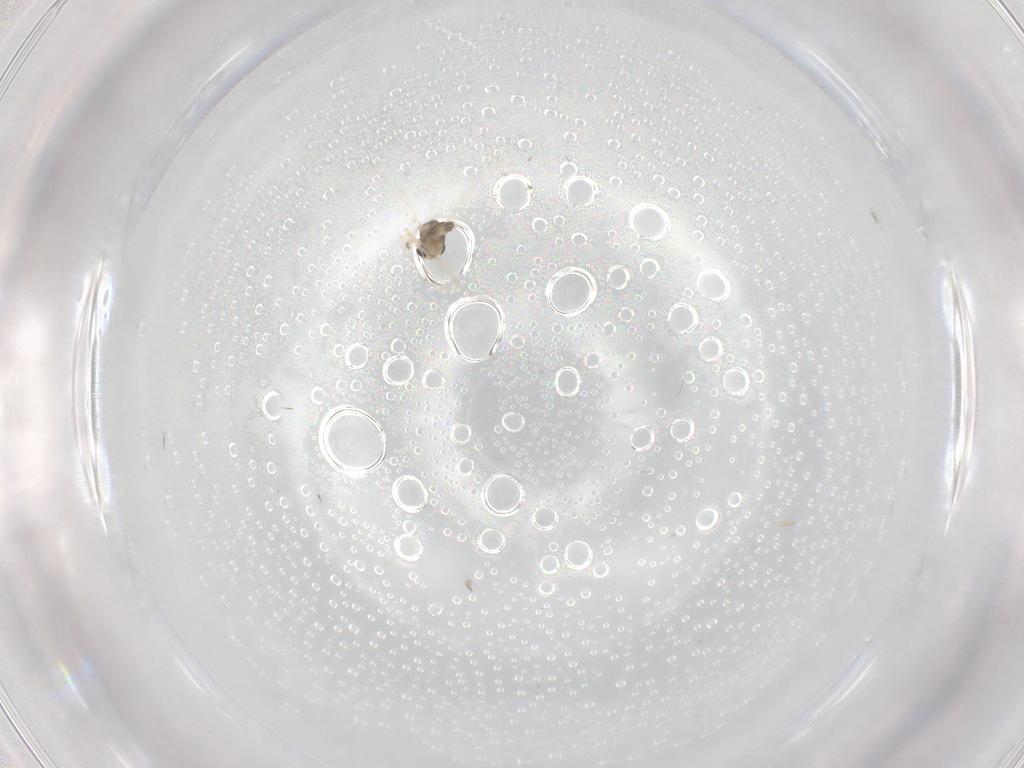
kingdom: Animalia
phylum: Arthropoda
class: Insecta
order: Diptera
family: Chironomidae
